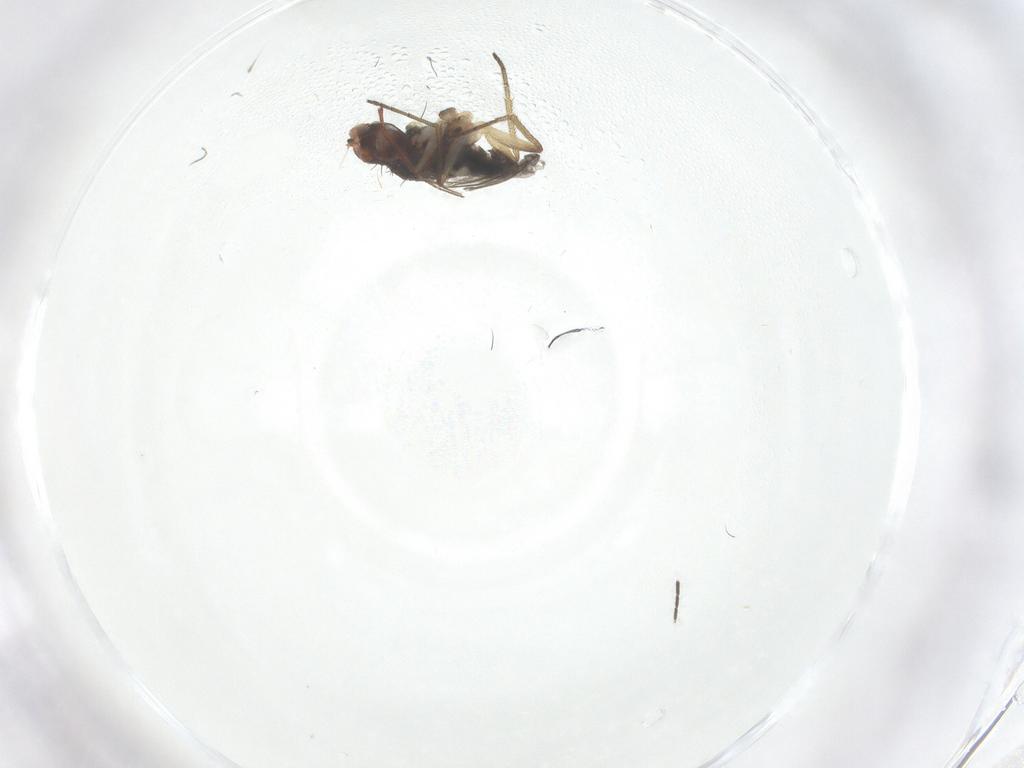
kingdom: Animalia
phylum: Arthropoda
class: Insecta
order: Diptera
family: Dolichopodidae
